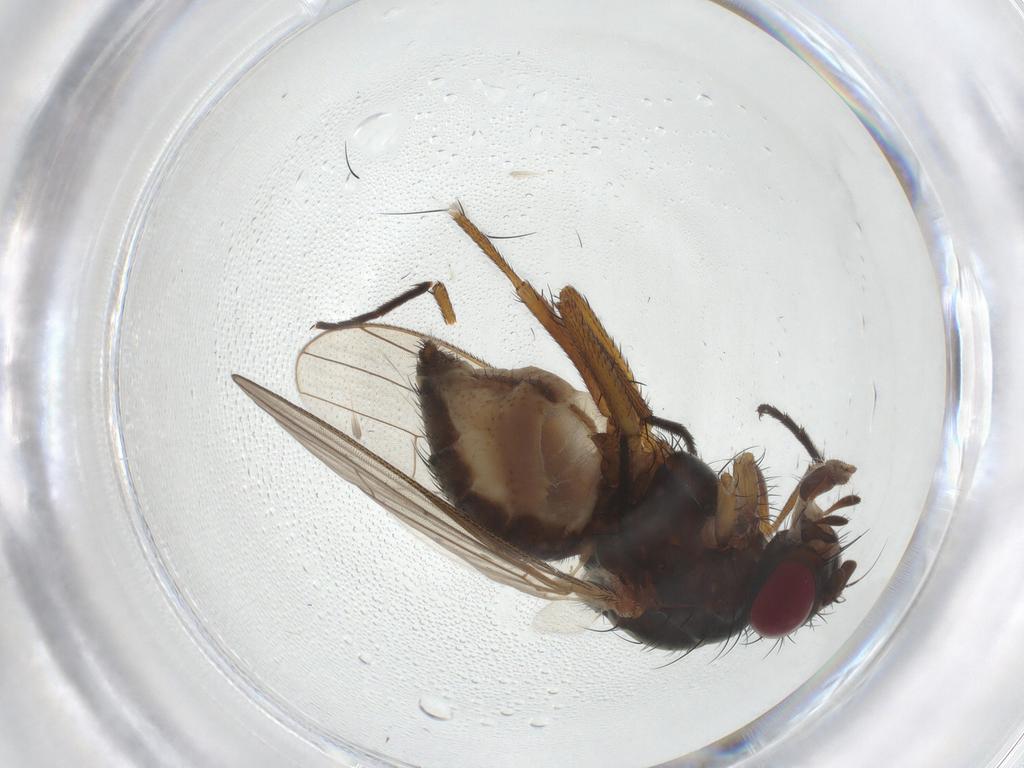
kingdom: Animalia
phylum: Arthropoda
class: Insecta
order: Diptera
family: Anthomyiidae
